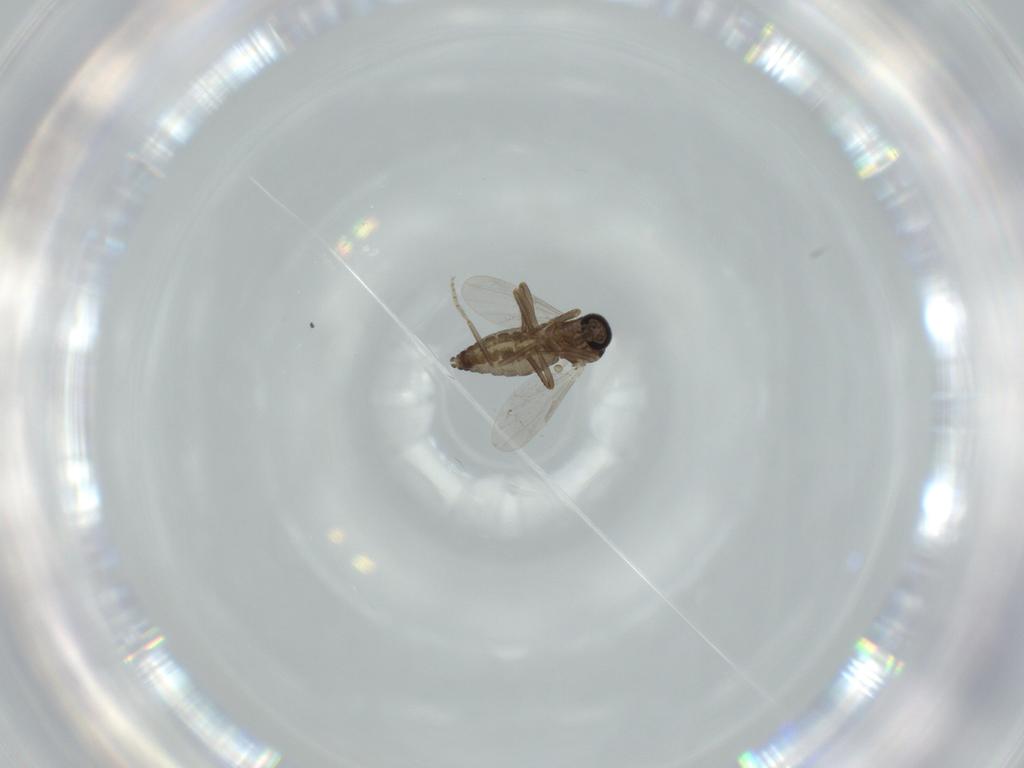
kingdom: Animalia
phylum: Arthropoda
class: Insecta
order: Diptera
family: Ceratopogonidae
